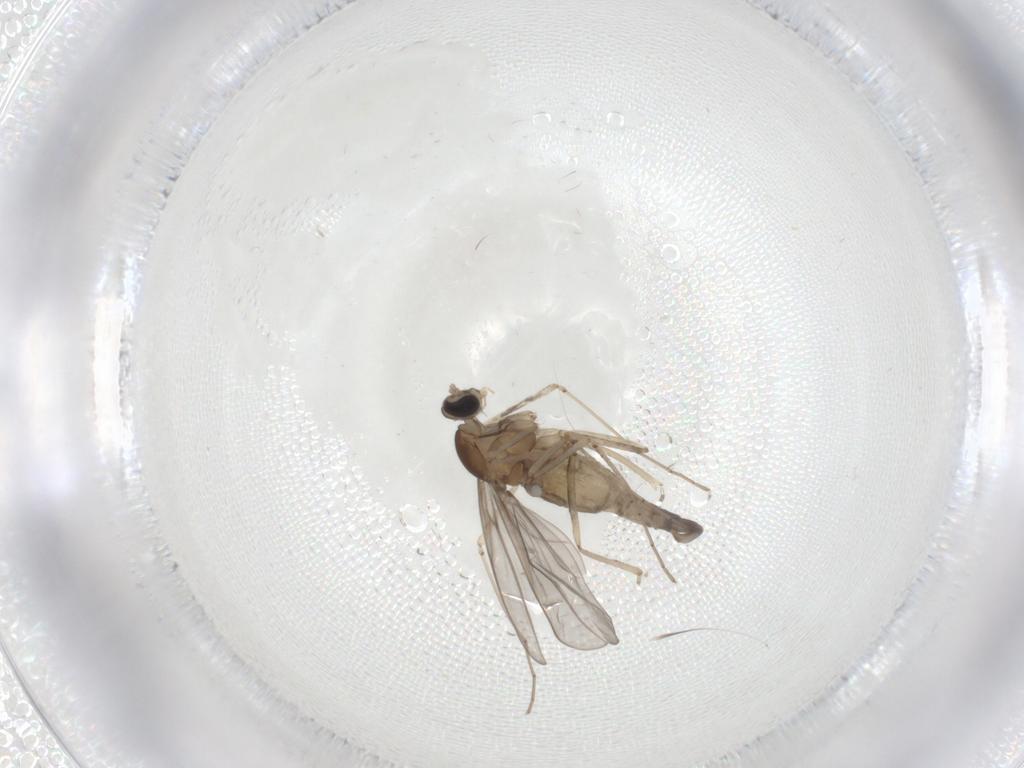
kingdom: Animalia
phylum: Arthropoda
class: Insecta
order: Diptera
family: Cecidomyiidae
